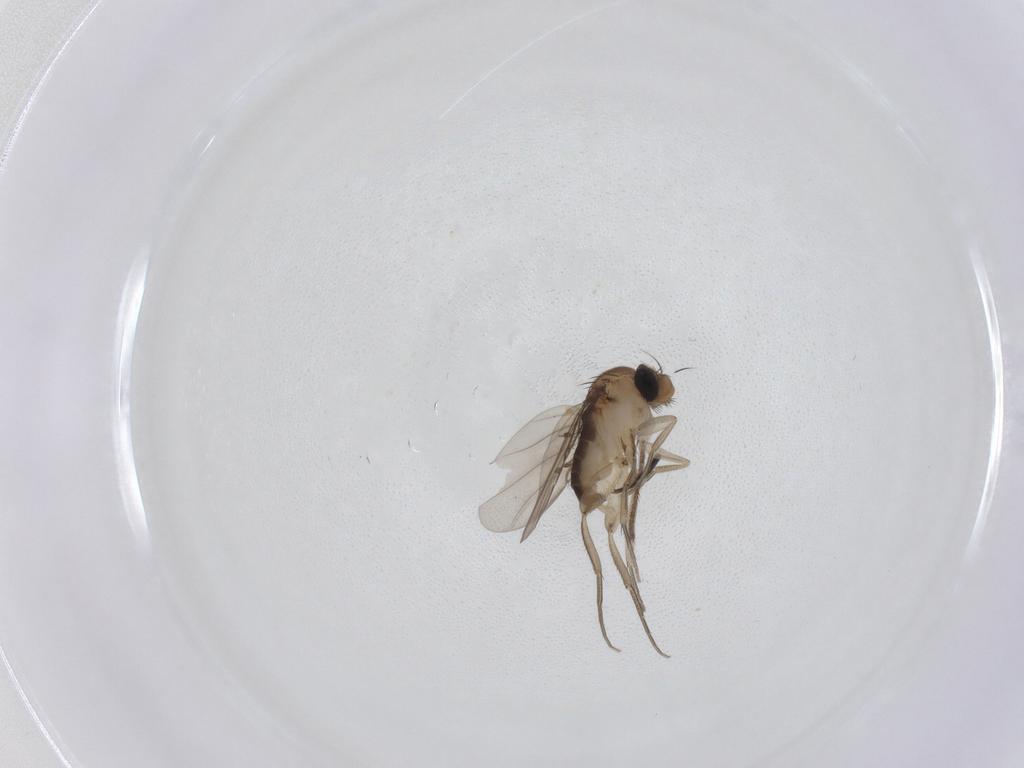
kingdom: Animalia
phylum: Arthropoda
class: Insecta
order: Diptera
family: Phoridae
